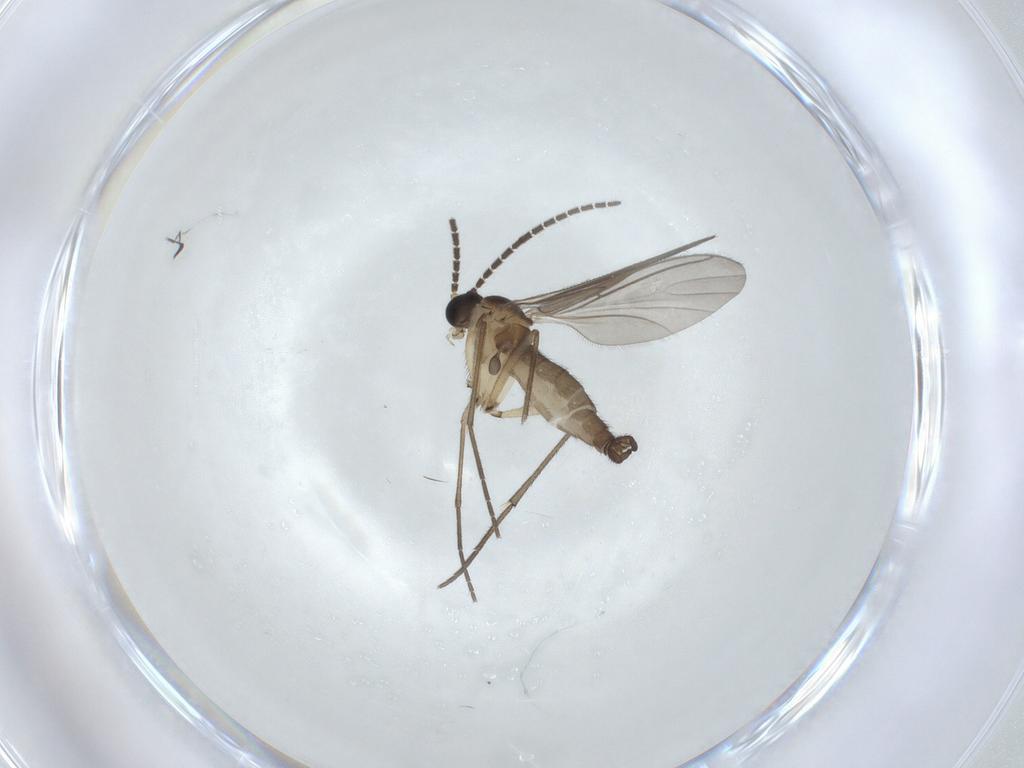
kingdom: Animalia
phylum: Arthropoda
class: Insecta
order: Diptera
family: Sciaridae
